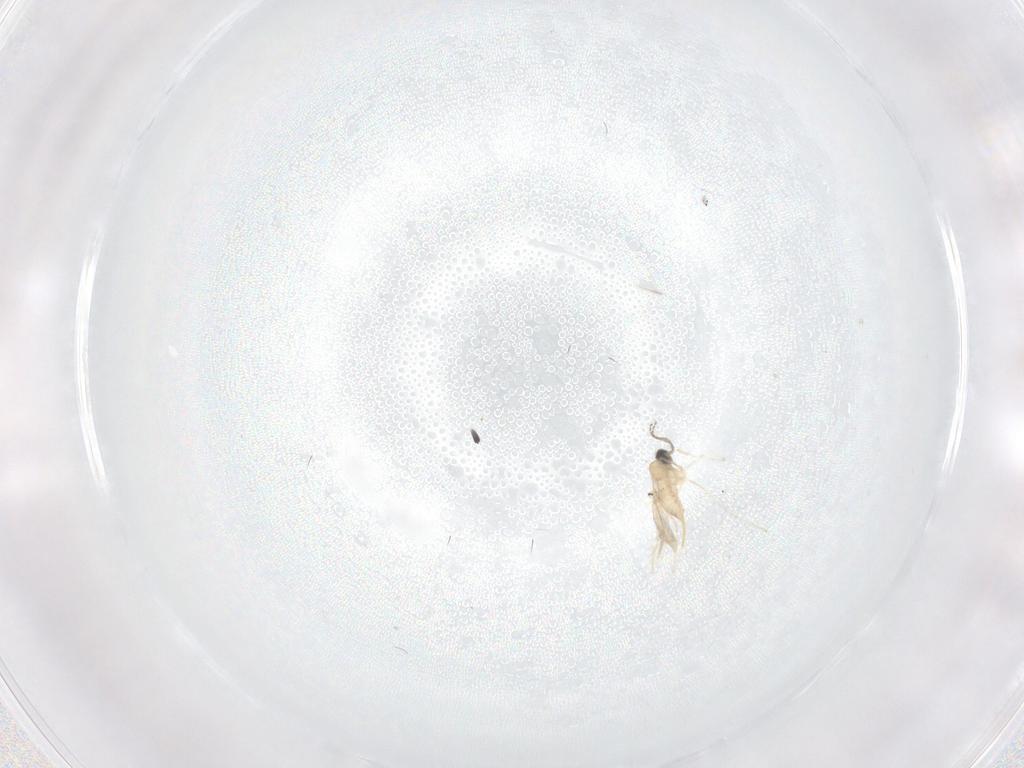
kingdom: Animalia
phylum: Arthropoda
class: Insecta
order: Diptera
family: Cecidomyiidae
